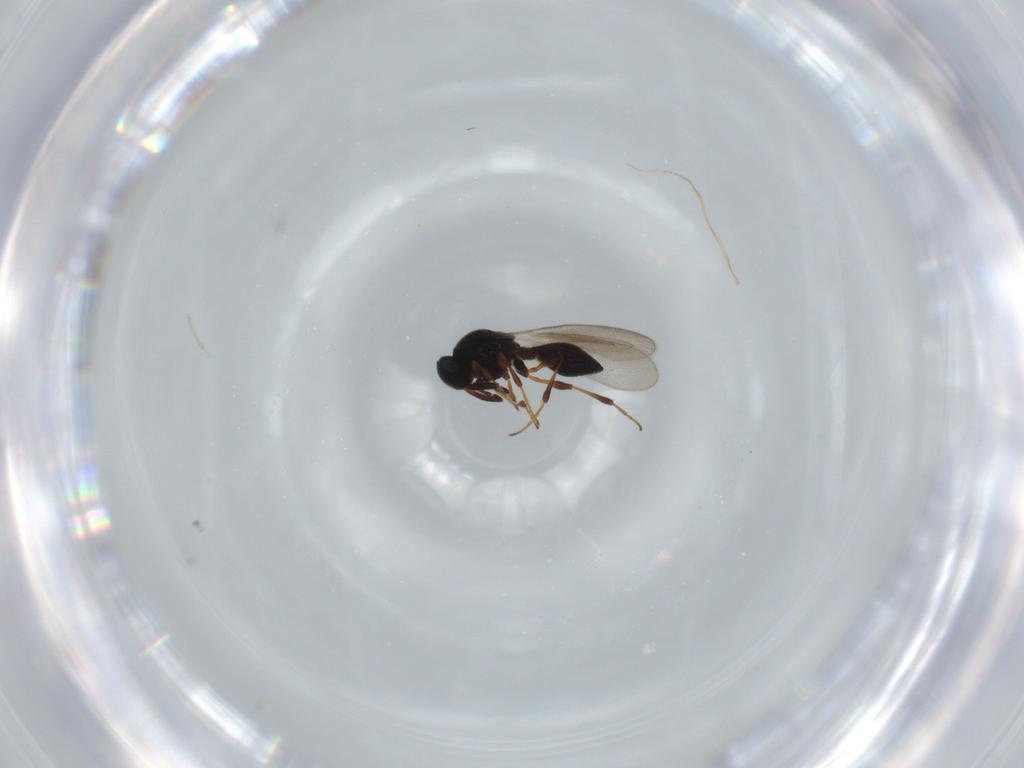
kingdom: Animalia
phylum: Arthropoda
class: Insecta
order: Hymenoptera
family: Platygastridae
